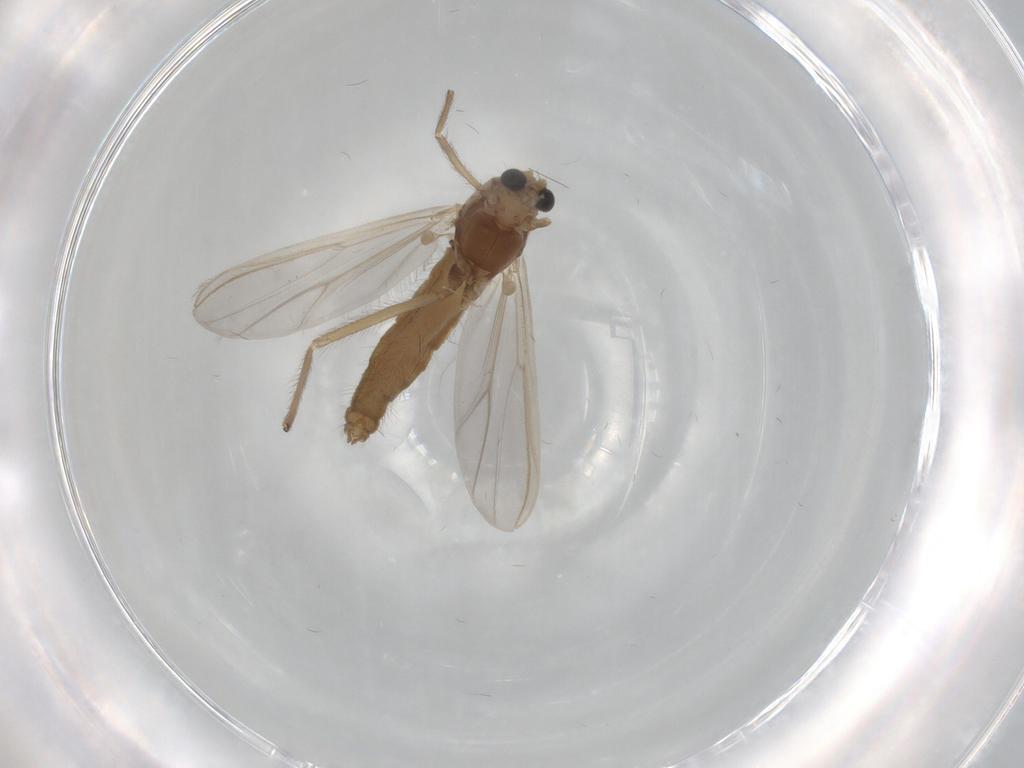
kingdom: Animalia
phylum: Arthropoda
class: Insecta
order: Diptera
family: Chironomidae
